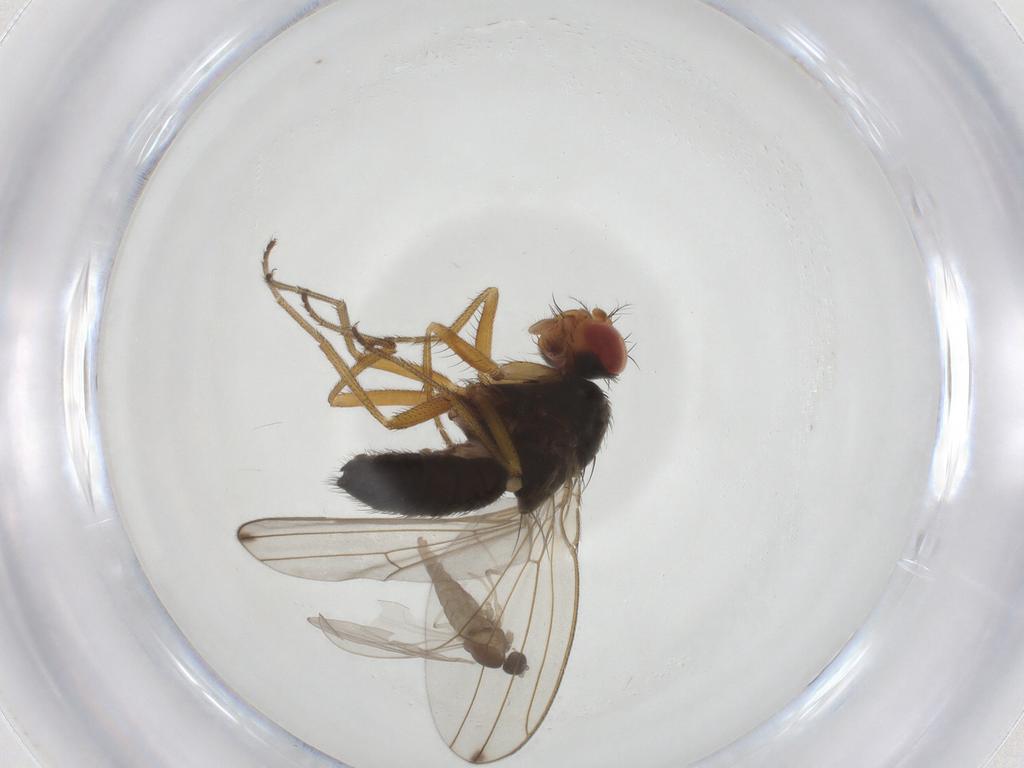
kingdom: Animalia
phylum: Arthropoda
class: Insecta
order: Diptera
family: Drosophilidae
